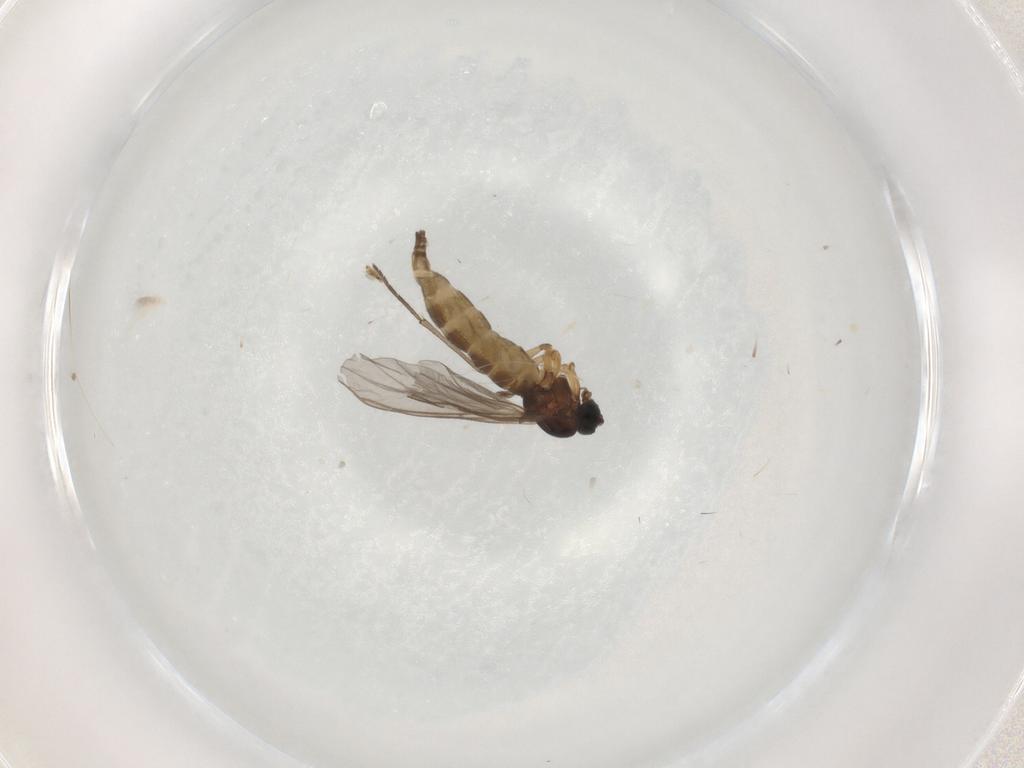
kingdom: Animalia
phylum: Arthropoda
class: Insecta
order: Diptera
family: Sciaridae
